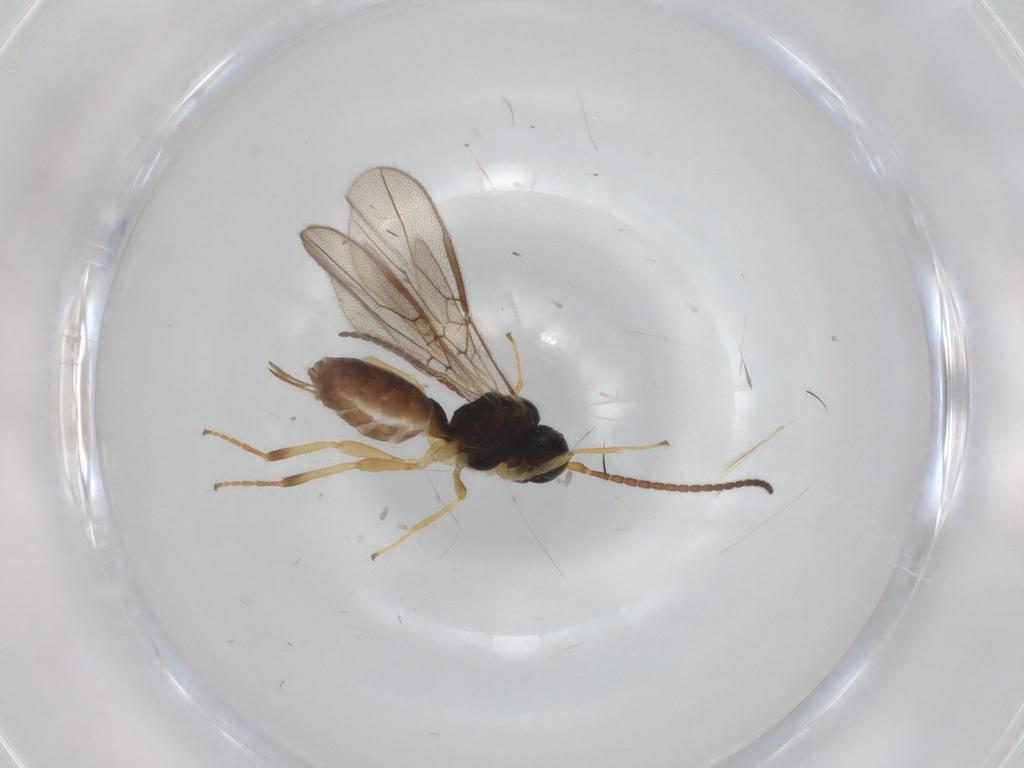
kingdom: Animalia
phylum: Arthropoda
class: Insecta
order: Hymenoptera
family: Braconidae
